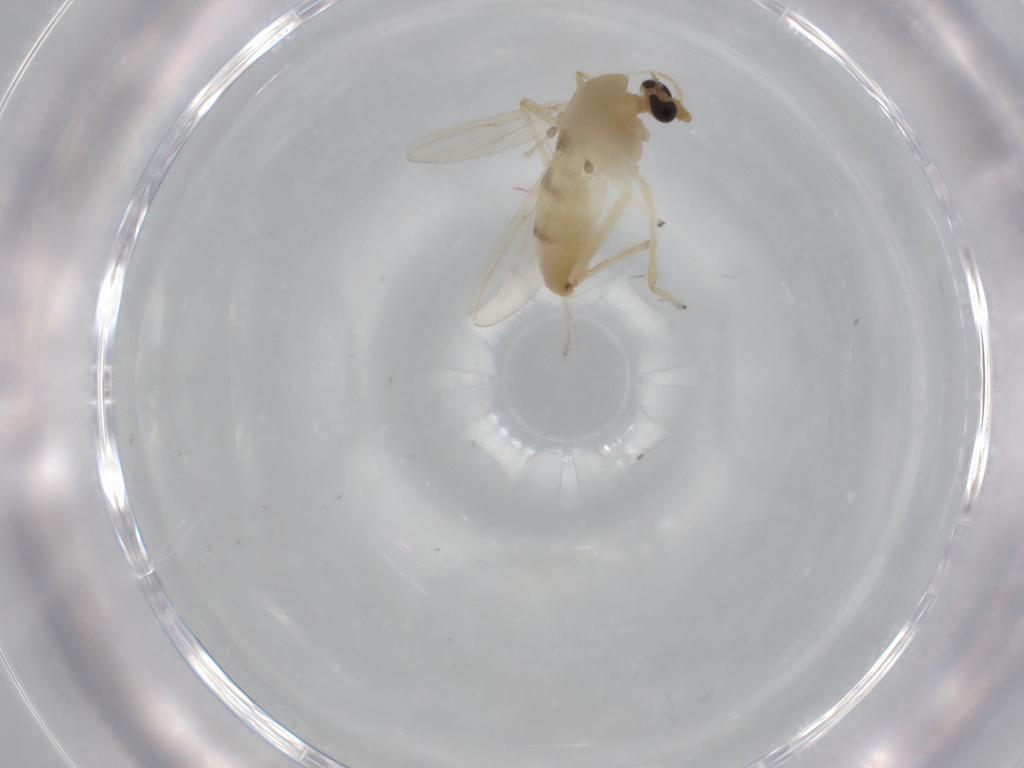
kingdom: Animalia
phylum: Arthropoda
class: Insecta
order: Diptera
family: Chironomidae
